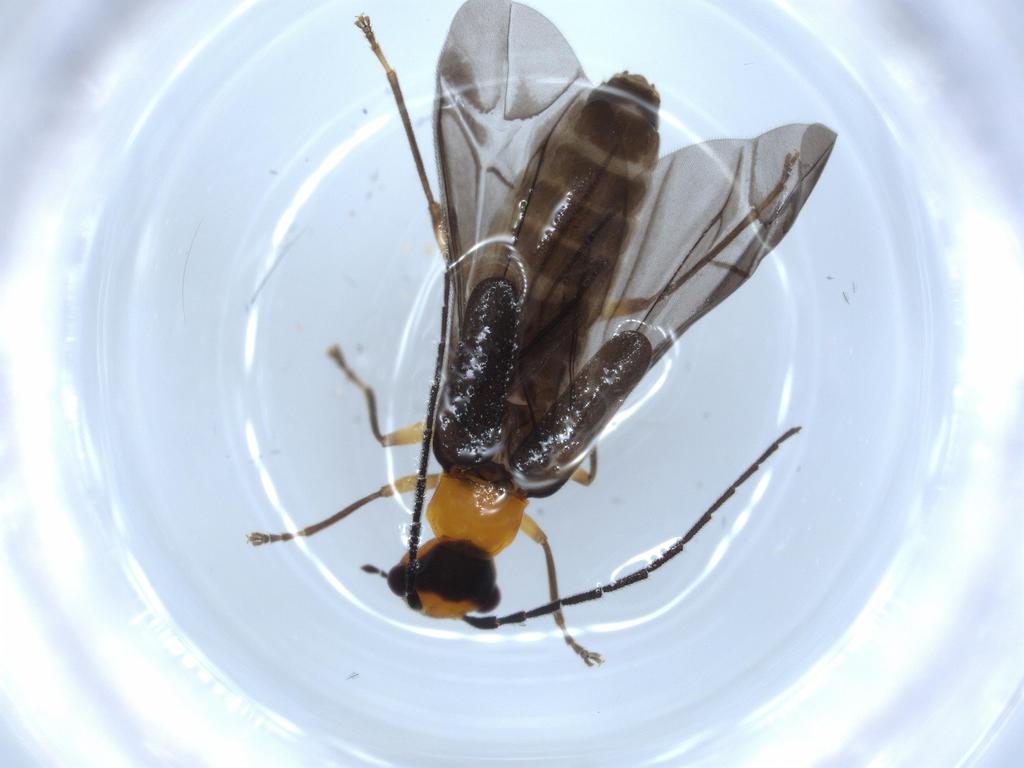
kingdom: Animalia
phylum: Arthropoda
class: Insecta
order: Coleoptera
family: Cantharidae
